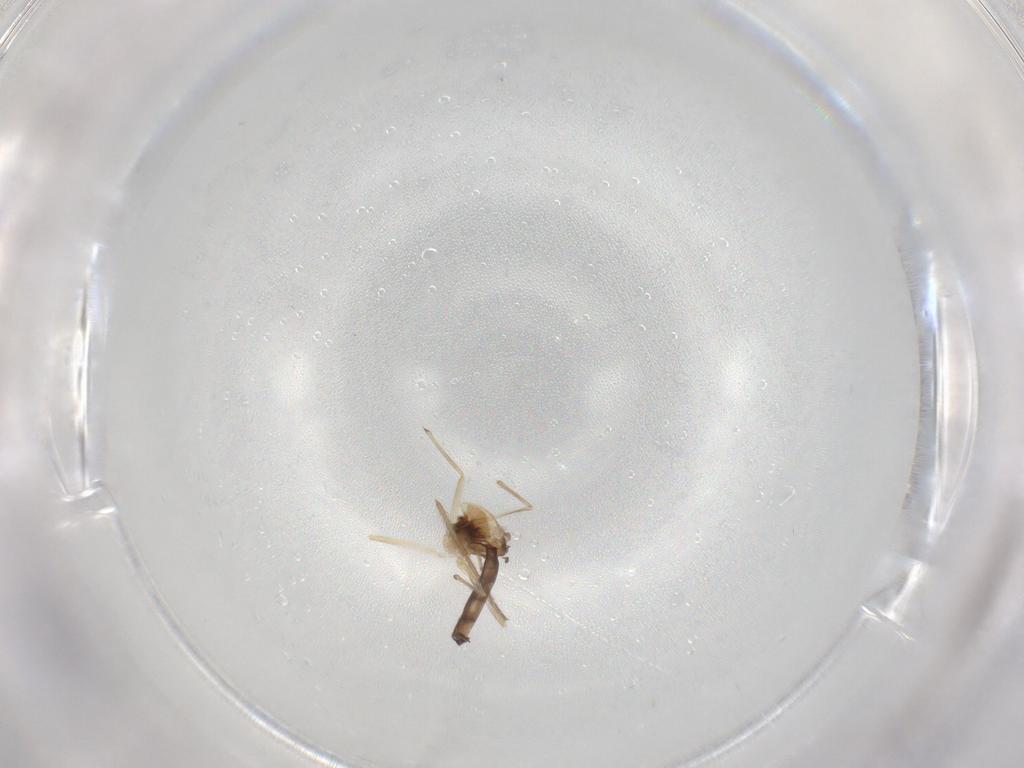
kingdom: Animalia
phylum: Arthropoda
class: Insecta
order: Diptera
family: Chironomidae
